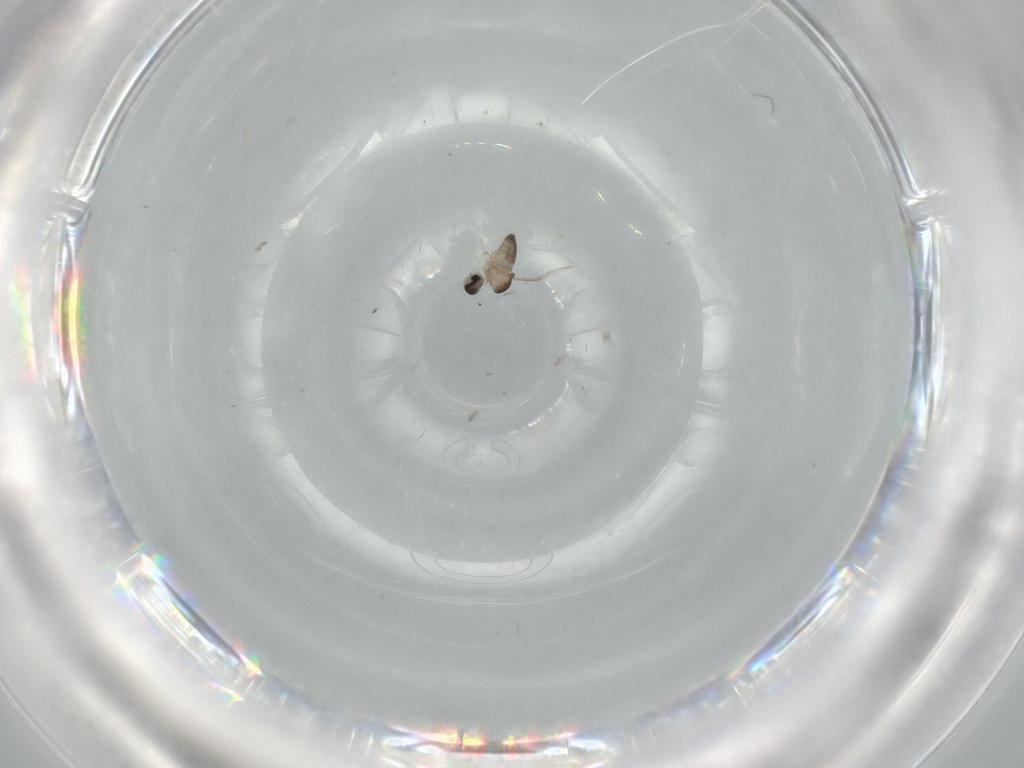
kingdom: Animalia
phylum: Arthropoda
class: Insecta
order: Diptera
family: Cecidomyiidae
